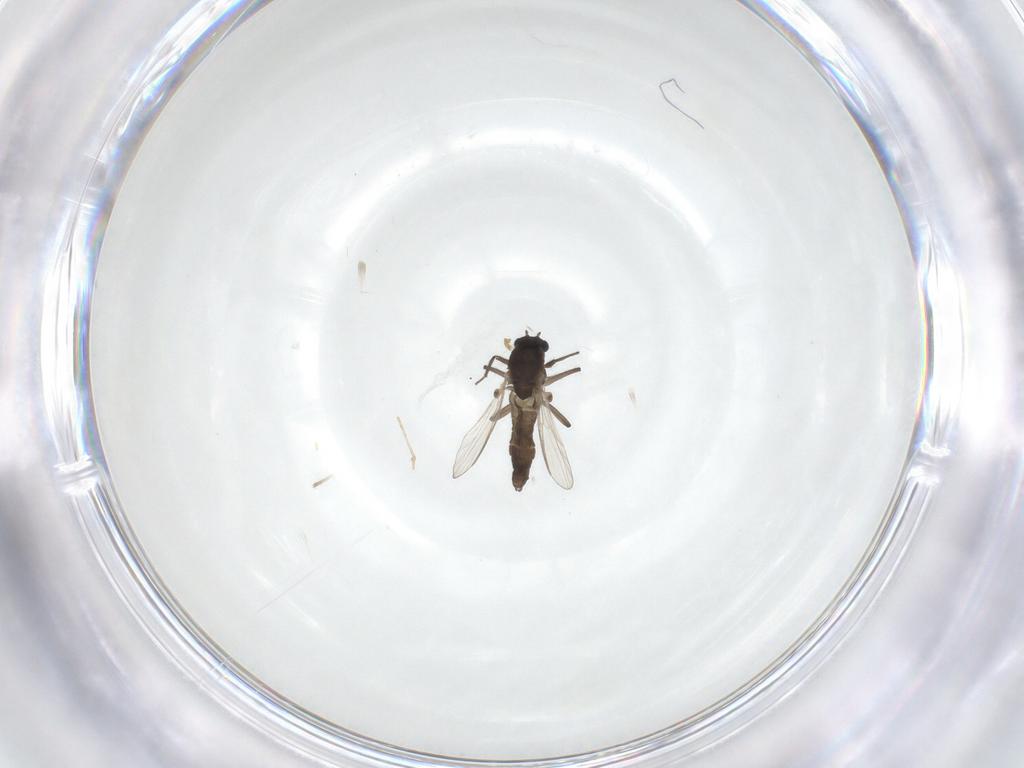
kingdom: Animalia
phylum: Arthropoda
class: Insecta
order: Diptera
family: Chironomidae
